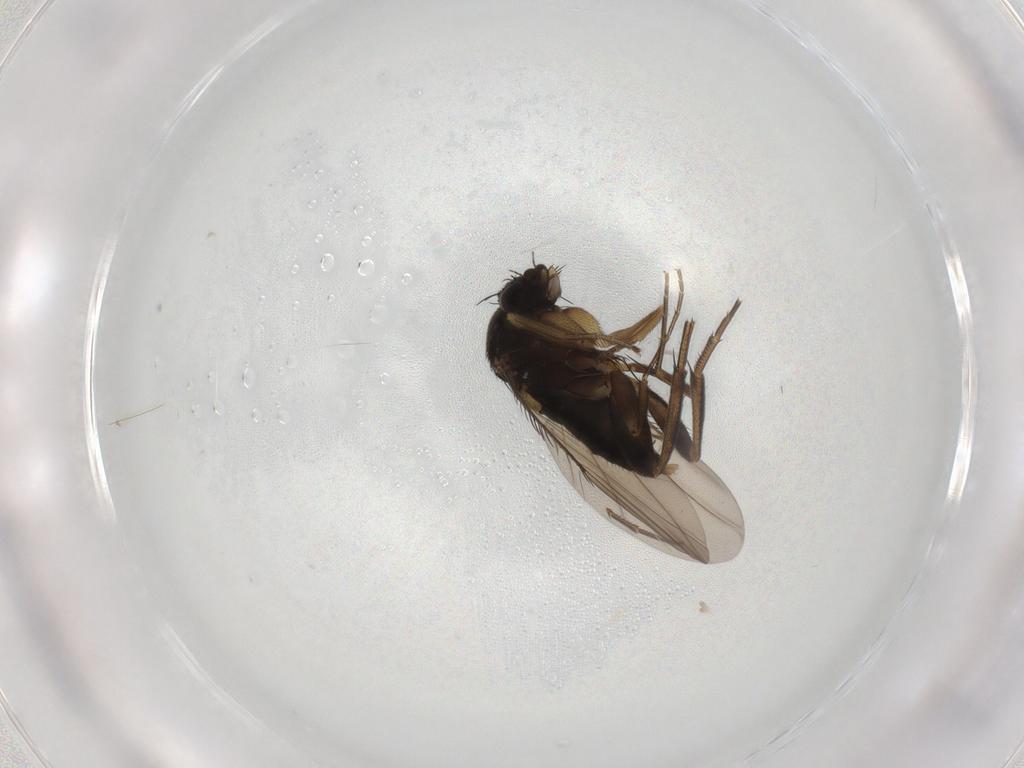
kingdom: Animalia
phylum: Arthropoda
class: Insecta
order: Diptera
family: Phoridae
